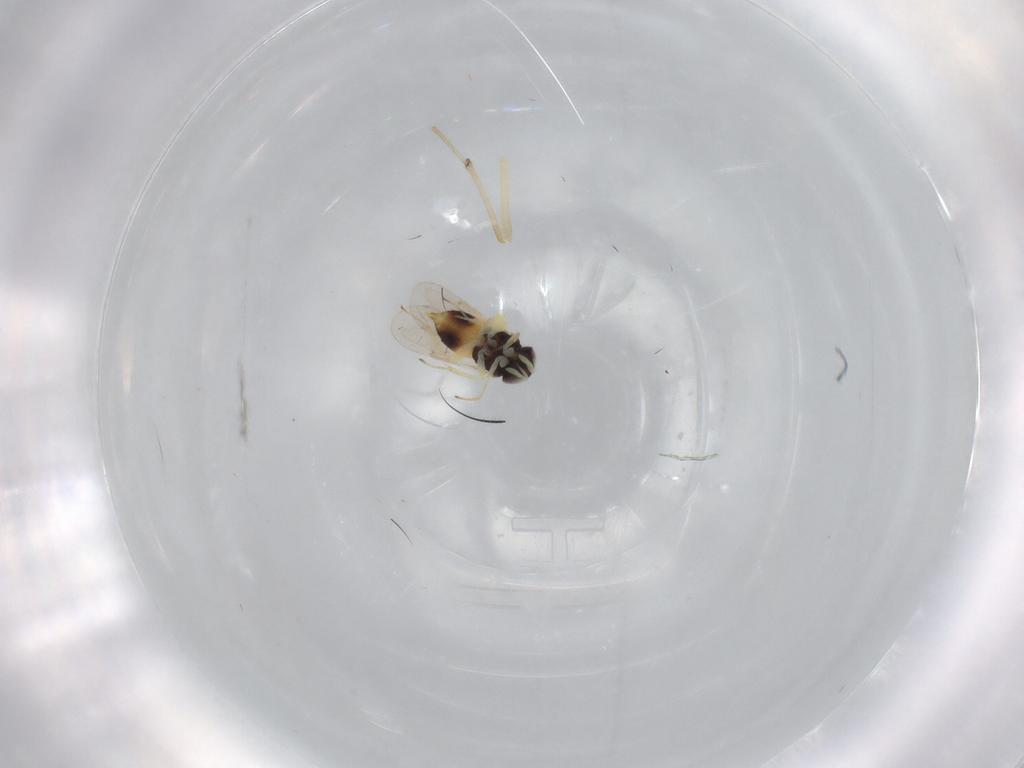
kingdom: Animalia
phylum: Arthropoda
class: Insecta
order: Hymenoptera
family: Aphelinidae
